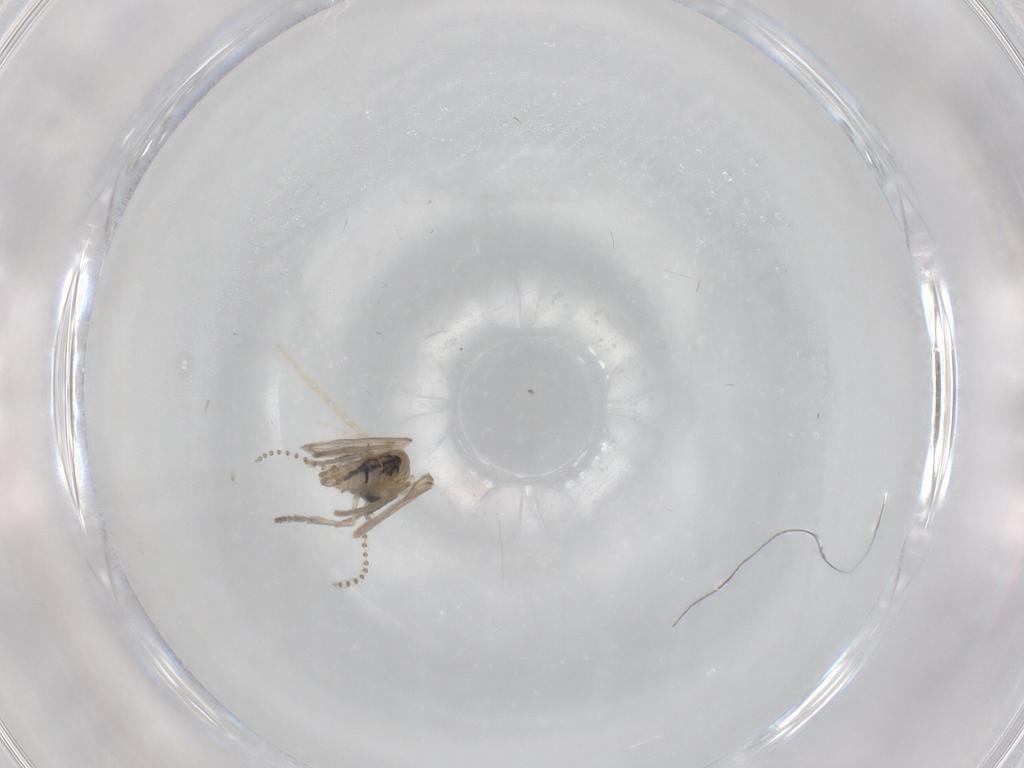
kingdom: Animalia
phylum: Arthropoda
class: Insecta
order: Diptera
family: Psychodidae
